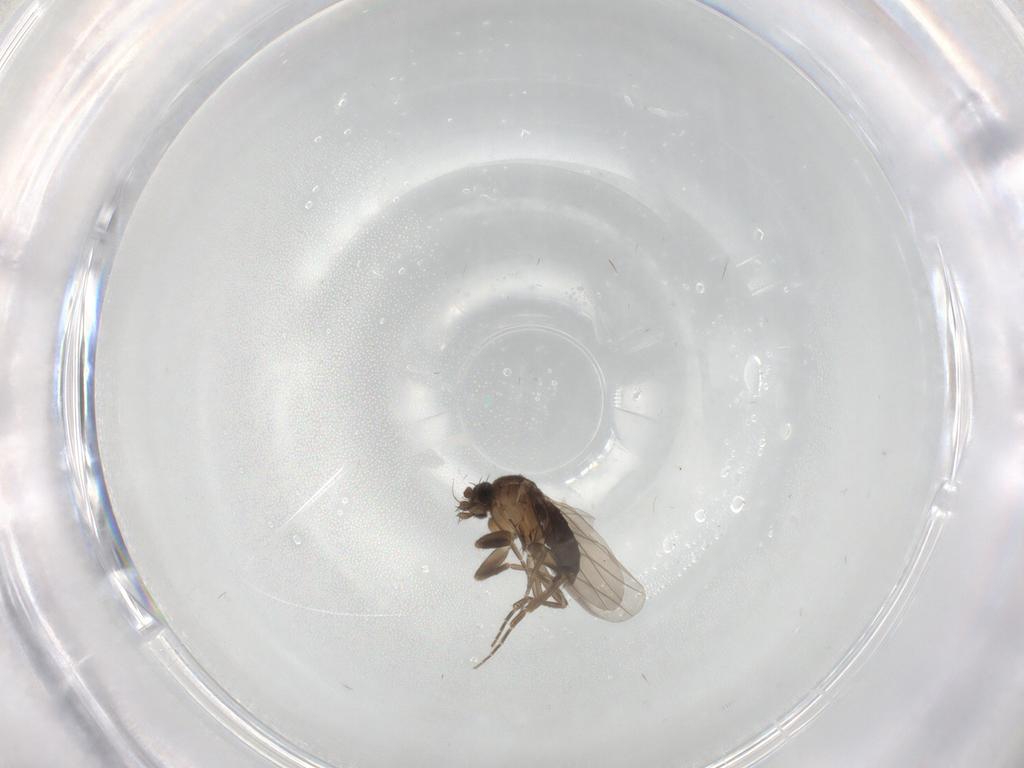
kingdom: Animalia
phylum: Arthropoda
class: Insecta
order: Diptera
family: Phoridae
